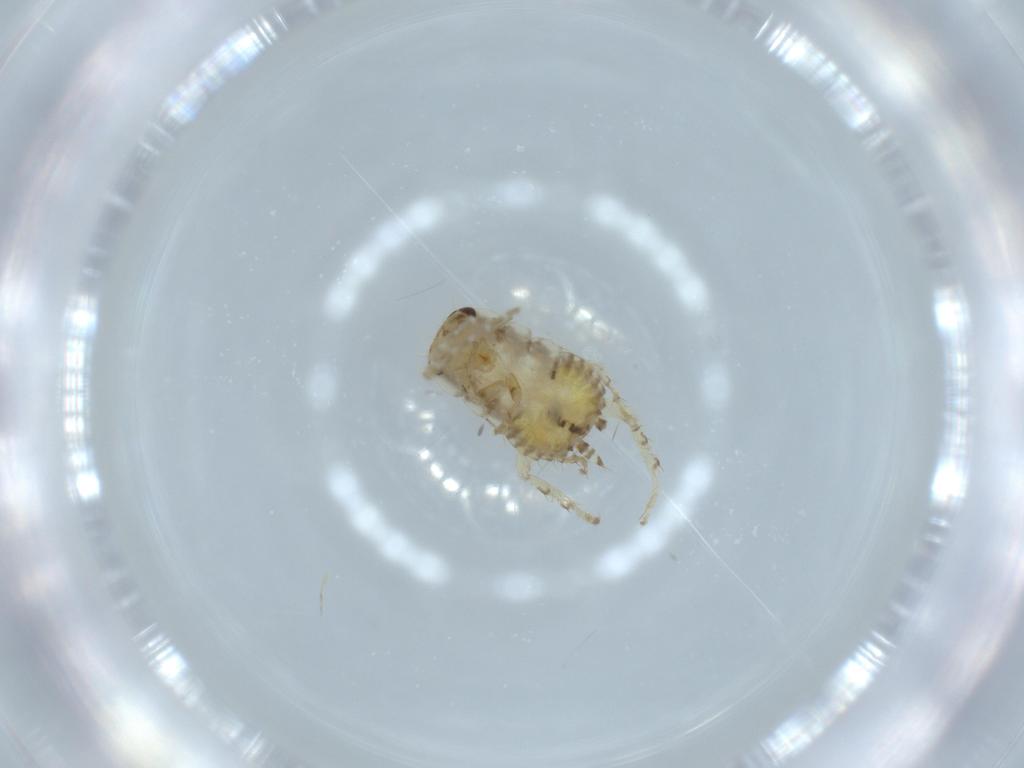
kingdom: Animalia
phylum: Arthropoda
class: Insecta
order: Blattodea
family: Ectobiidae
